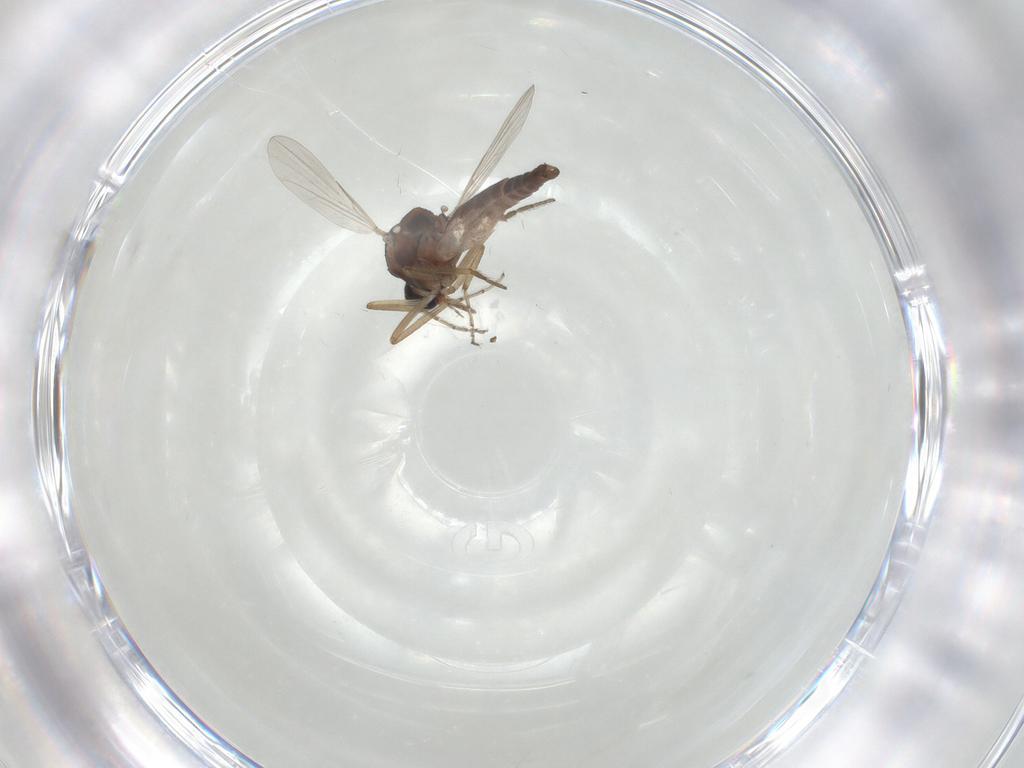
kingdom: Animalia
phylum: Arthropoda
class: Insecta
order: Diptera
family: Ceratopogonidae
